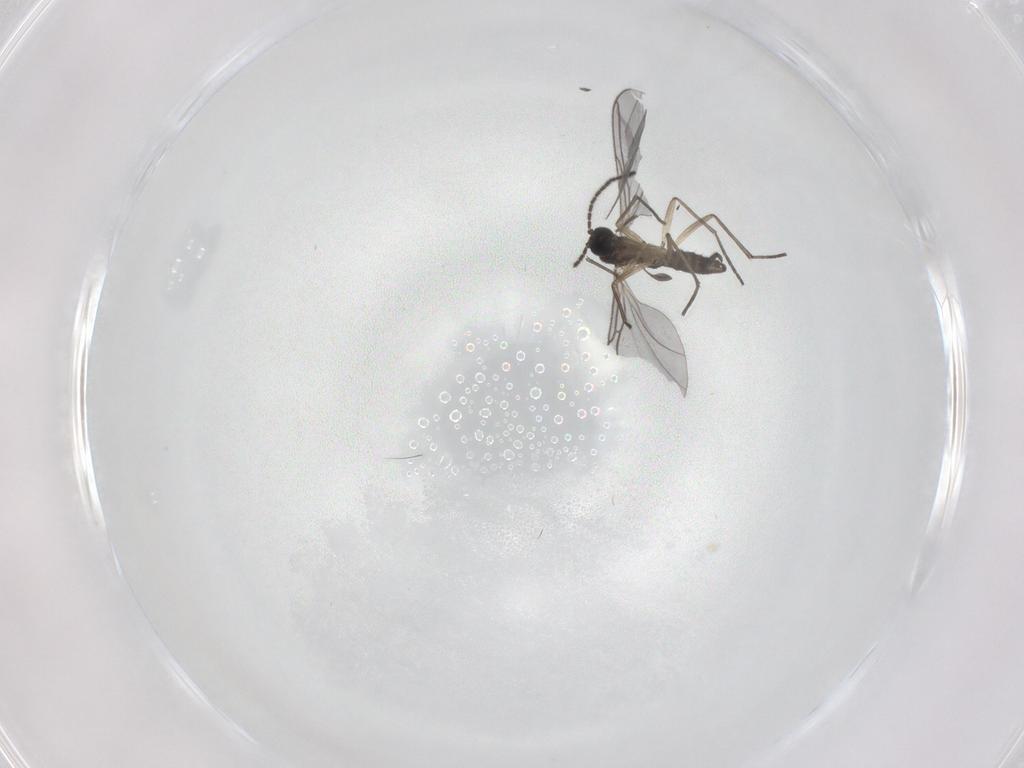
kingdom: Animalia
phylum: Arthropoda
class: Insecta
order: Diptera
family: Sciaridae
